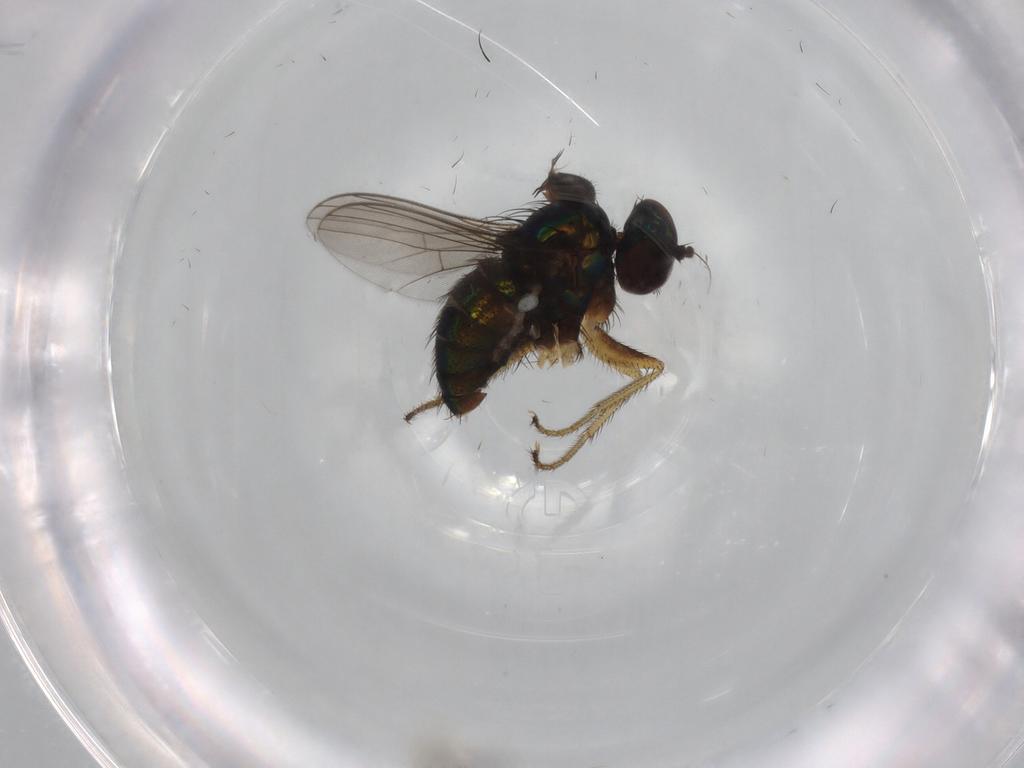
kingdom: Animalia
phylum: Arthropoda
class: Insecta
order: Diptera
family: Dolichopodidae
